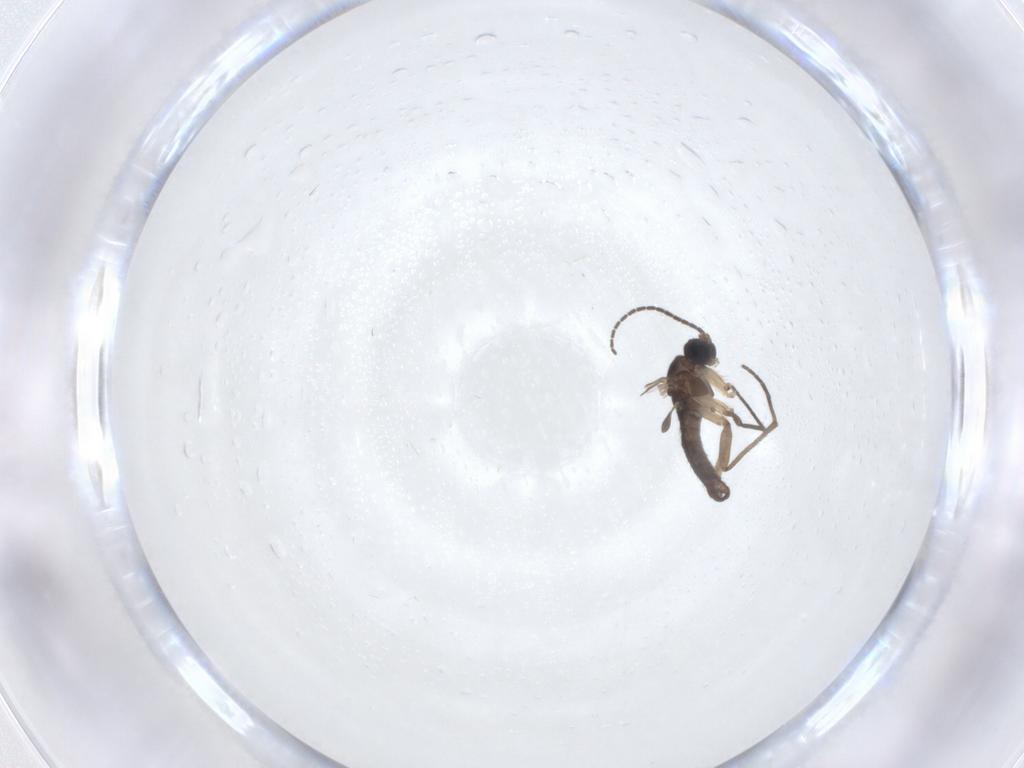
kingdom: Animalia
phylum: Arthropoda
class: Insecta
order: Diptera
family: Sciaridae
